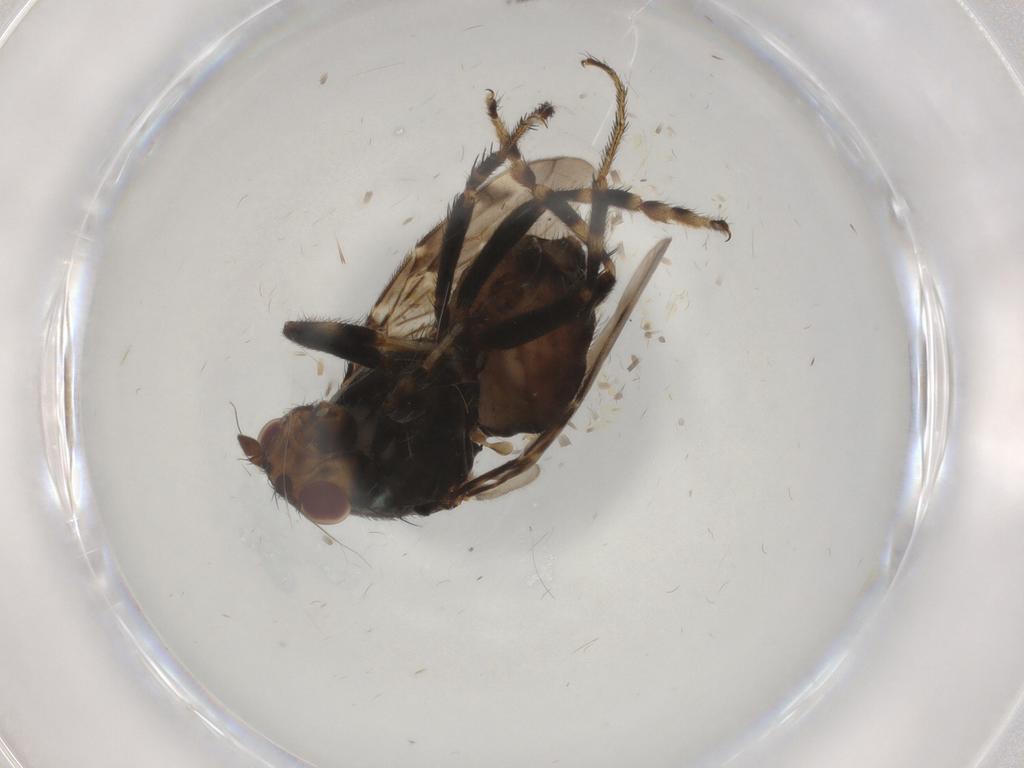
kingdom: Animalia
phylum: Arthropoda
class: Insecta
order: Diptera
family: Sphaeroceridae
